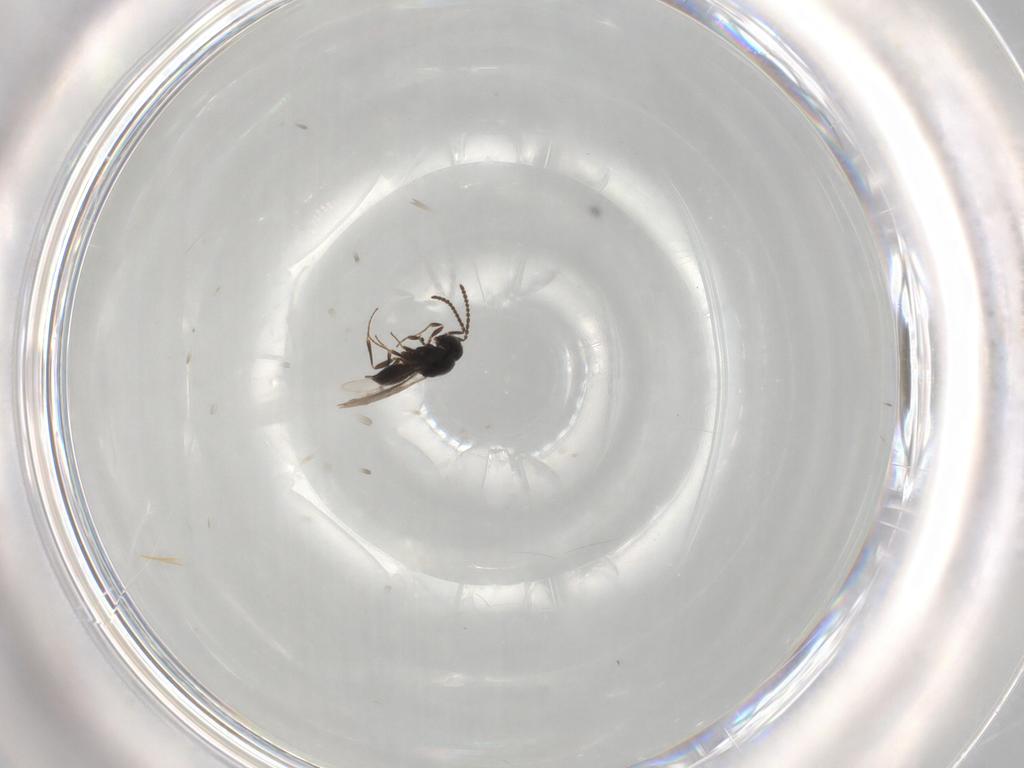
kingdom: Animalia
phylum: Arthropoda
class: Insecta
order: Hymenoptera
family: Scelionidae
